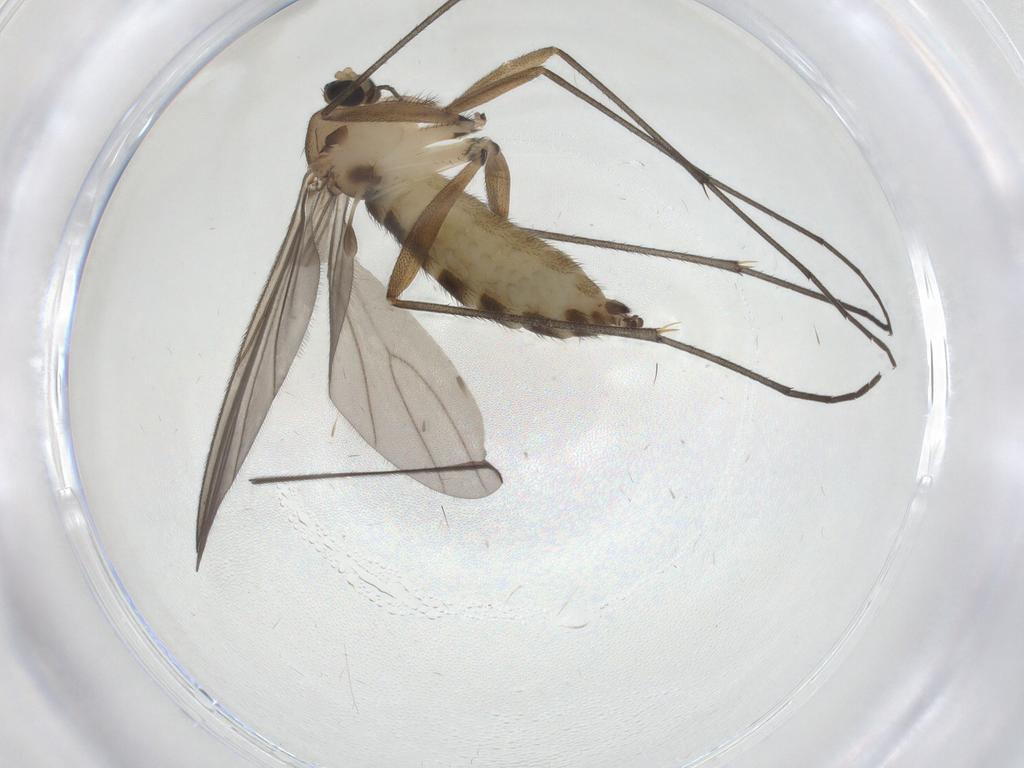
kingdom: Animalia
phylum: Arthropoda
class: Insecta
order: Diptera
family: Sciaridae
